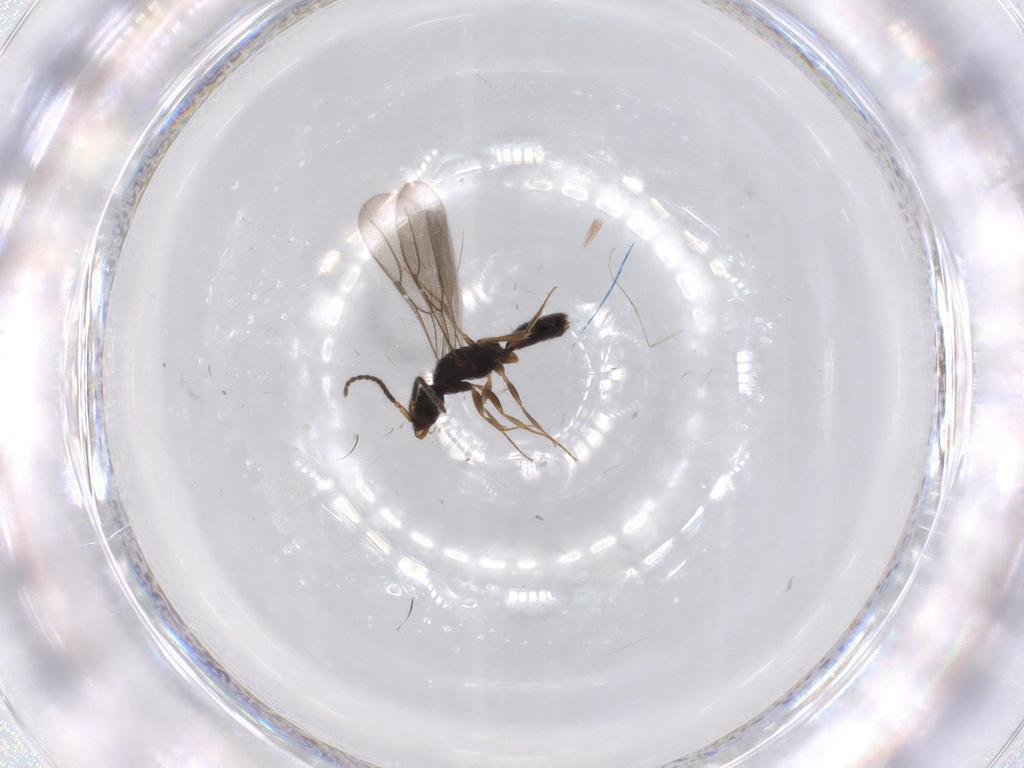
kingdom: Animalia
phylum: Arthropoda
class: Insecta
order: Hymenoptera
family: Bethylidae
